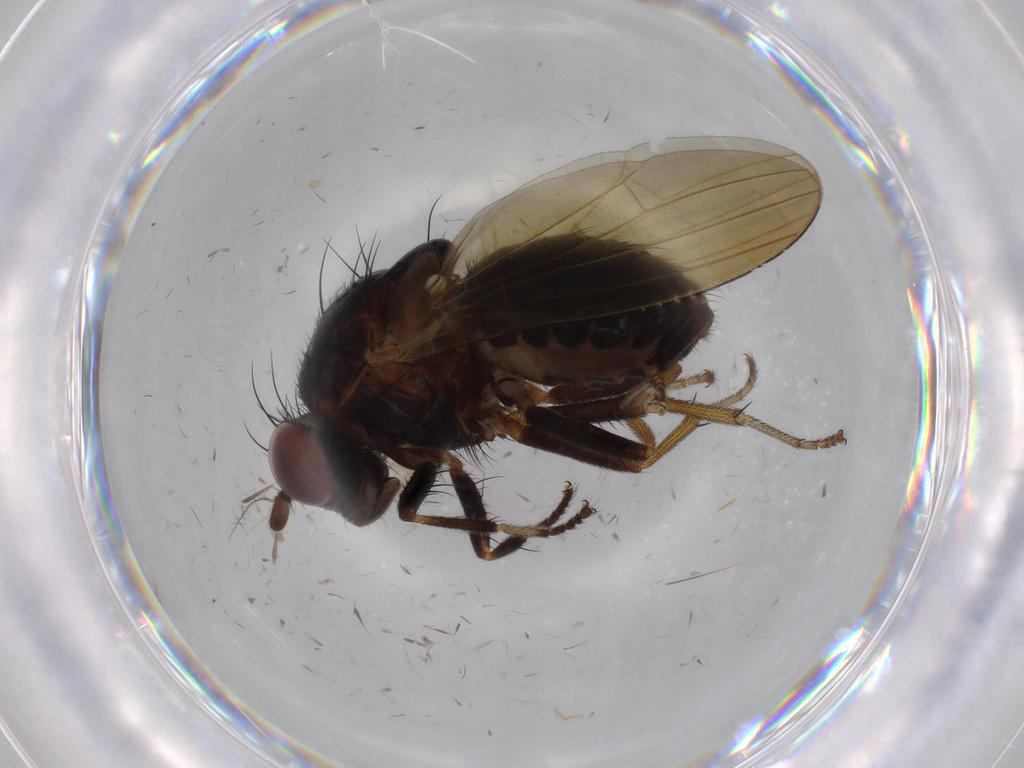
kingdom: Animalia
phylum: Arthropoda
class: Insecta
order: Diptera
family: Cecidomyiidae
